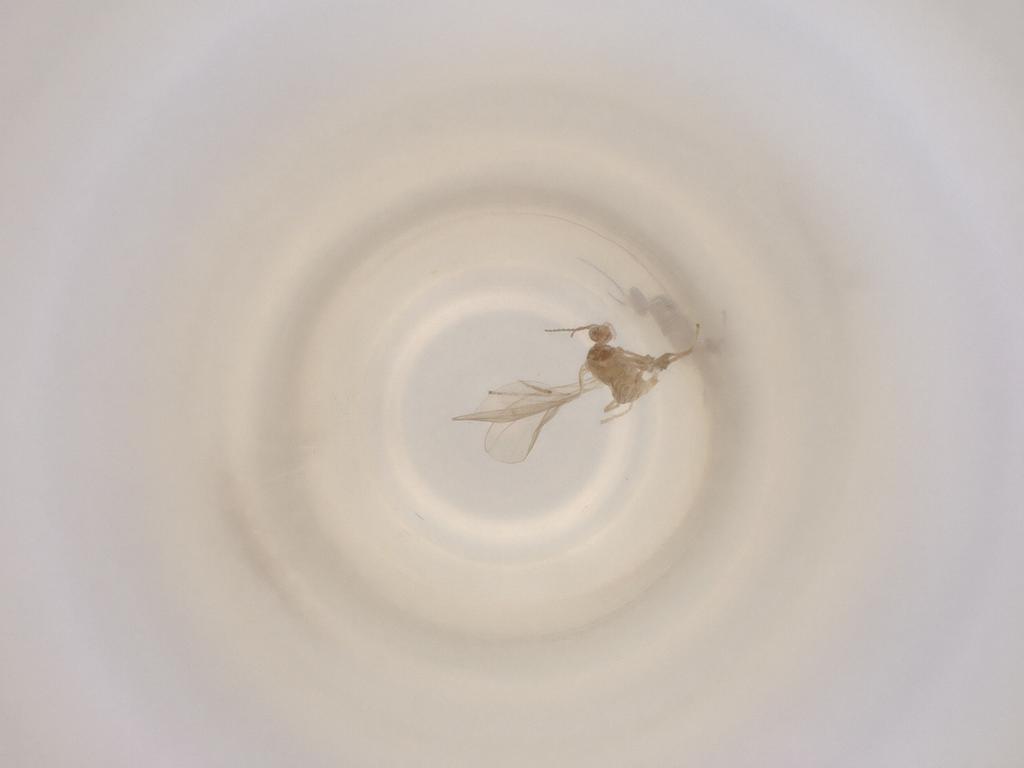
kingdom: Animalia
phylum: Arthropoda
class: Insecta
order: Diptera
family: Cecidomyiidae
